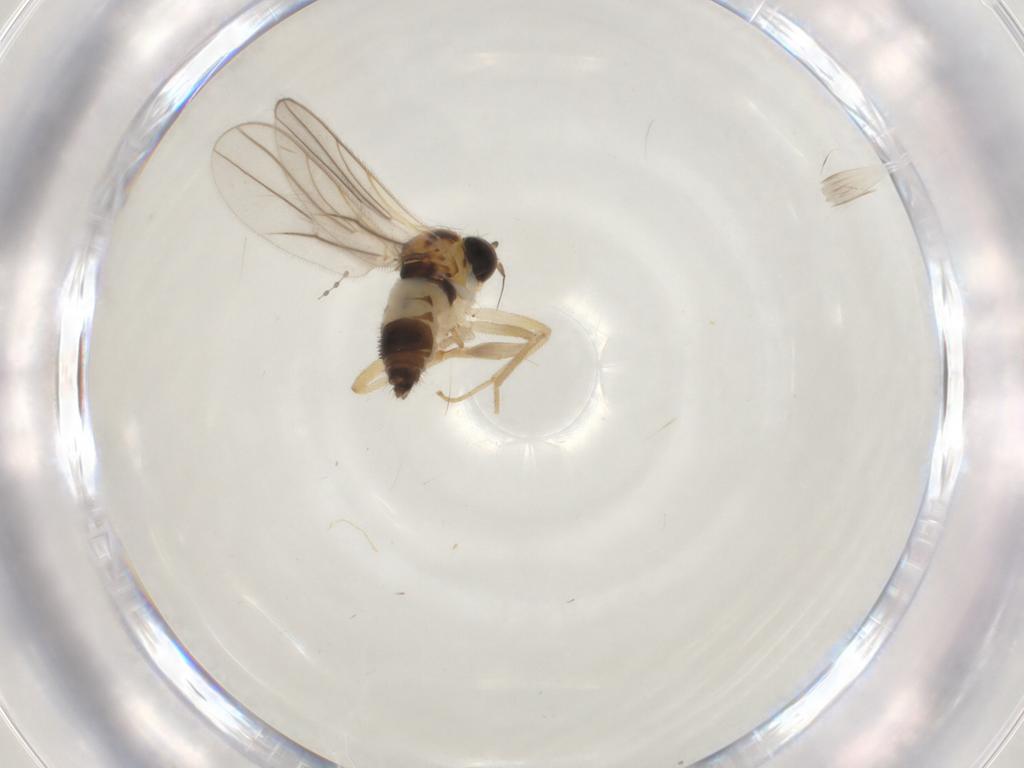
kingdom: Animalia
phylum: Arthropoda
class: Insecta
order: Diptera
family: Hybotidae
